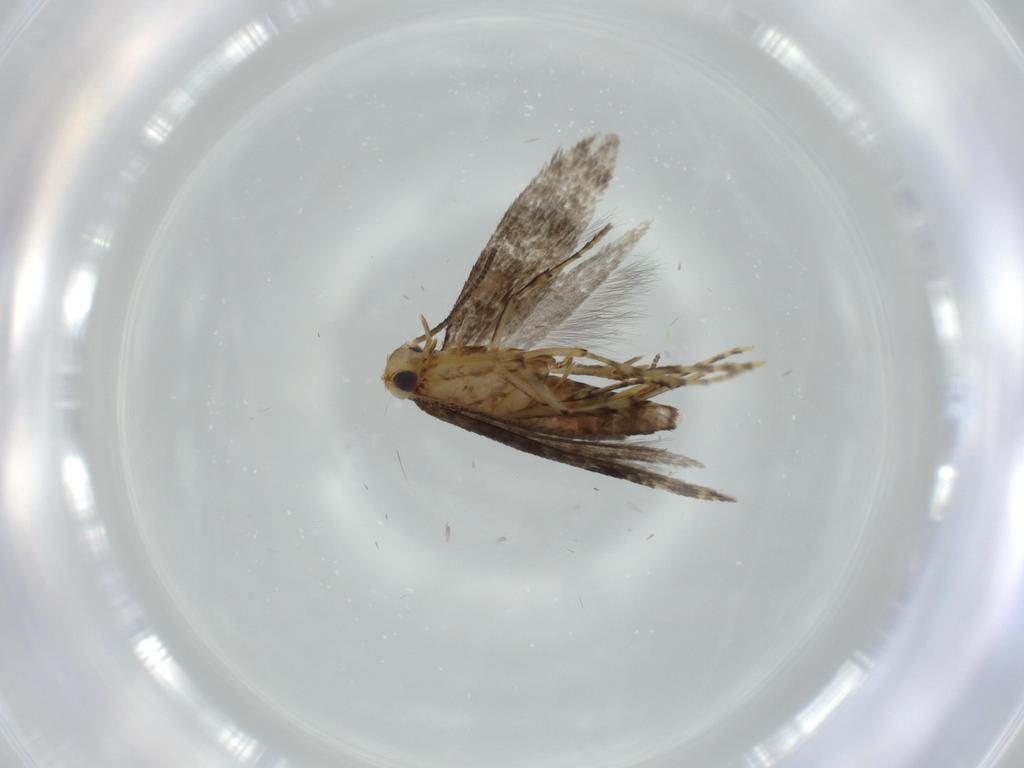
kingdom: Animalia
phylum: Arthropoda
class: Insecta
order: Lepidoptera
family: Argyresthiidae
